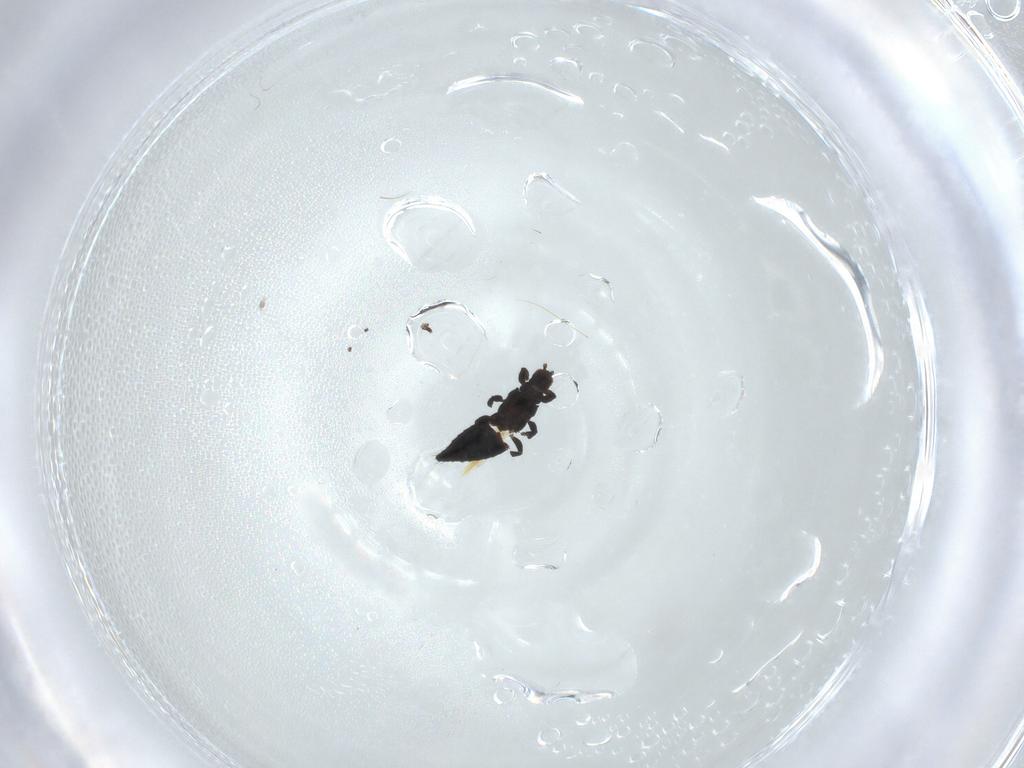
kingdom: Animalia
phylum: Arthropoda
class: Insecta
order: Thysanoptera
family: Thripidae
